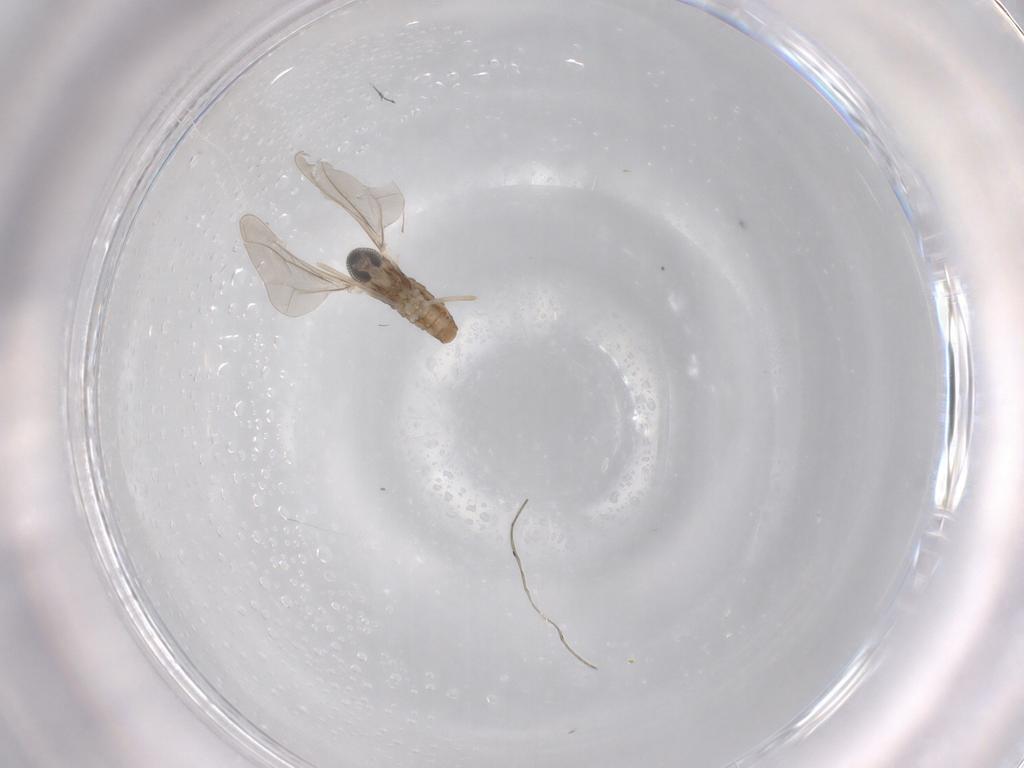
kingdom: Animalia
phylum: Arthropoda
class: Insecta
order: Diptera
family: Cecidomyiidae
